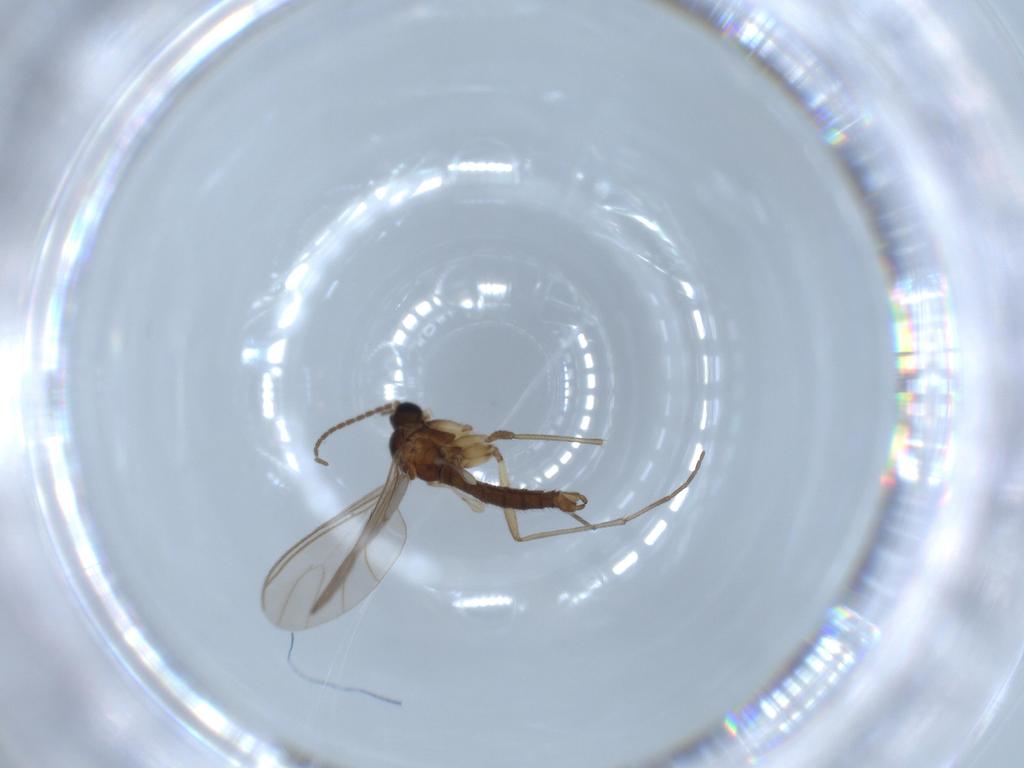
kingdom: Animalia
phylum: Arthropoda
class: Insecta
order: Diptera
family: Sciaridae
